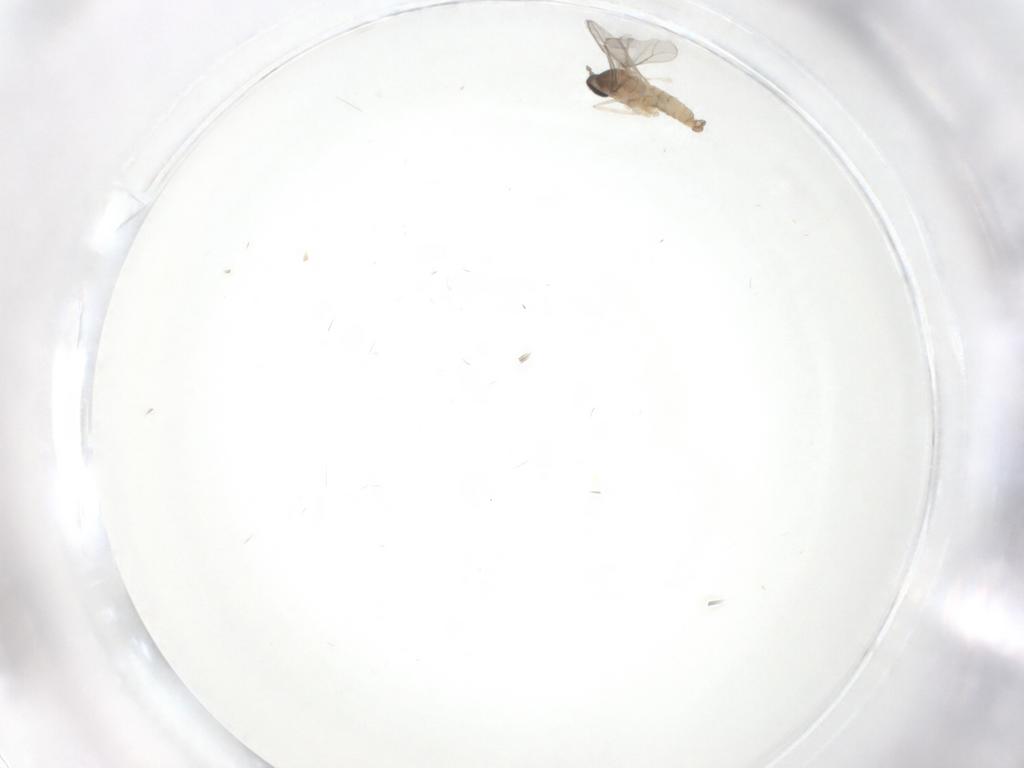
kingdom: Animalia
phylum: Arthropoda
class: Insecta
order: Diptera
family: Cecidomyiidae
